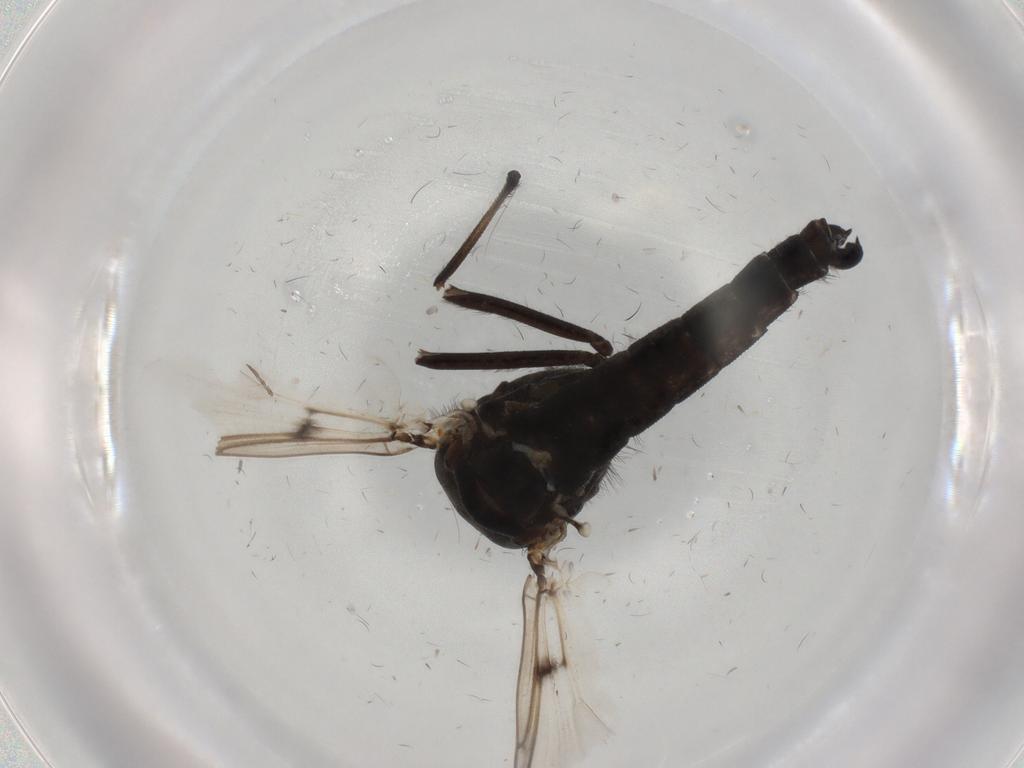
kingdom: Animalia
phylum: Arthropoda
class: Insecta
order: Diptera
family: Chironomidae
